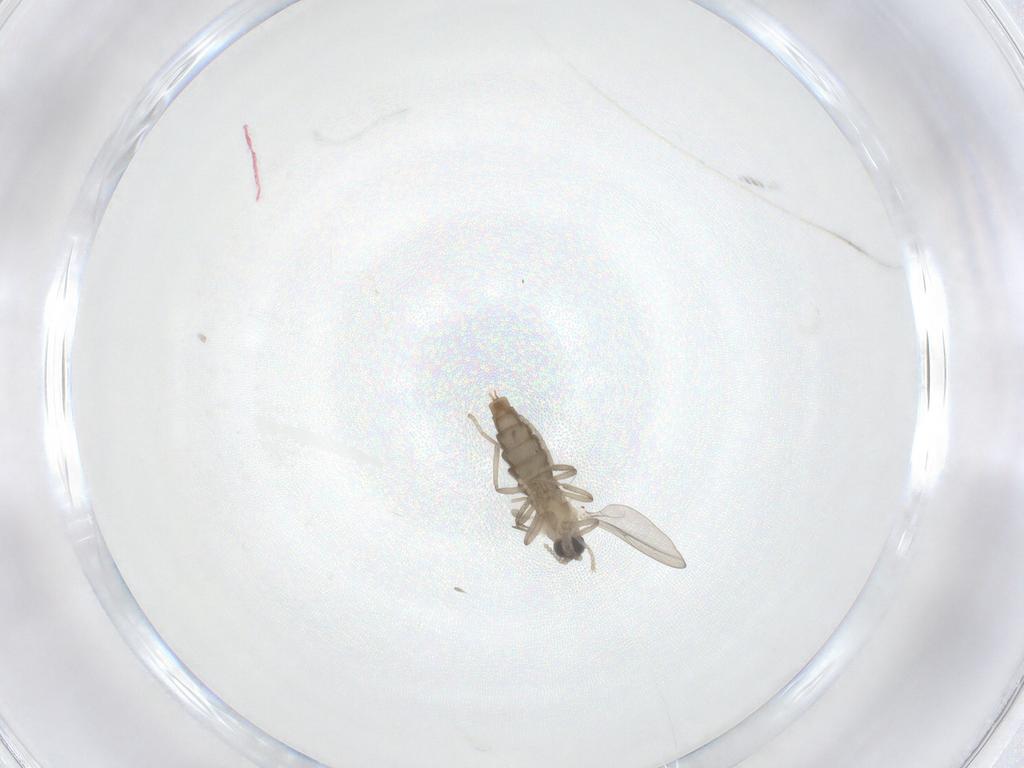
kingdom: Animalia
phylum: Arthropoda
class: Insecta
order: Diptera
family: Cecidomyiidae
